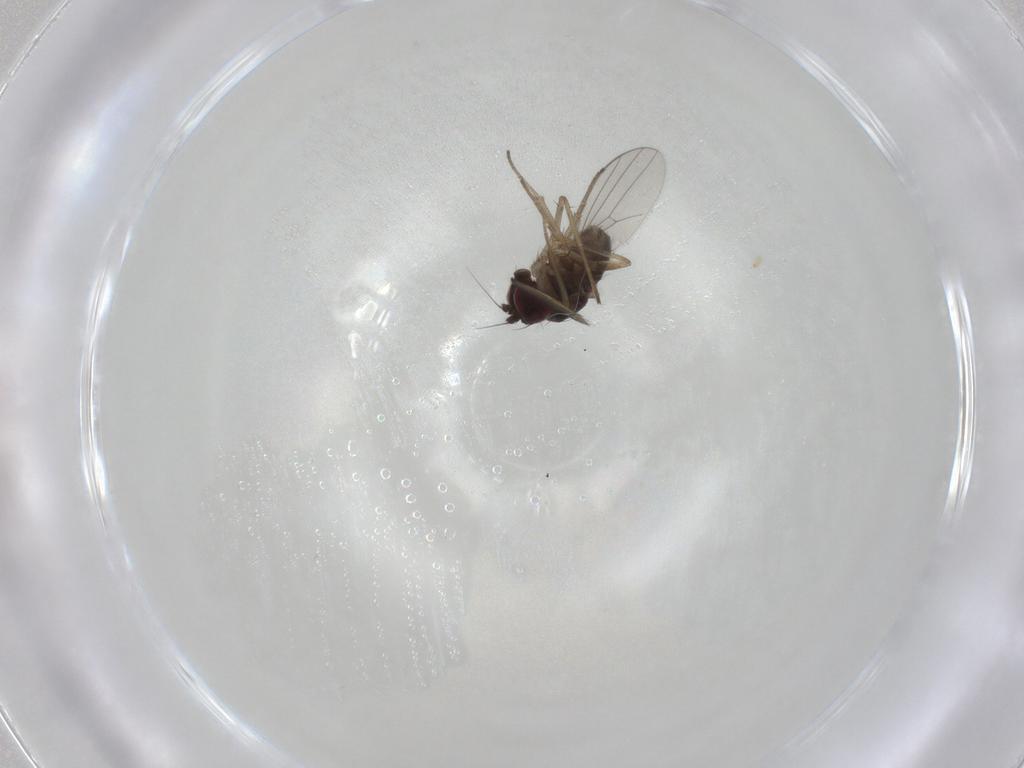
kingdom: Animalia
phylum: Arthropoda
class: Insecta
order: Diptera
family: Dolichopodidae
